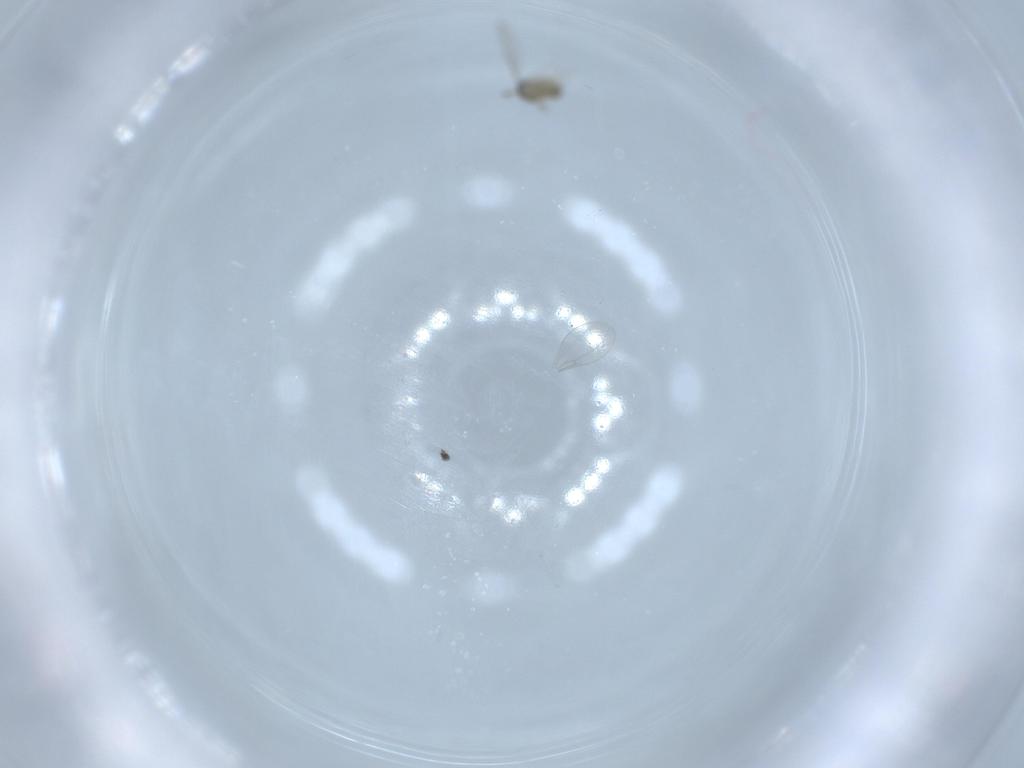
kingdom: Animalia
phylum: Arthropoda
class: Insecta
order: Diptera
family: Cecidomyiidae
